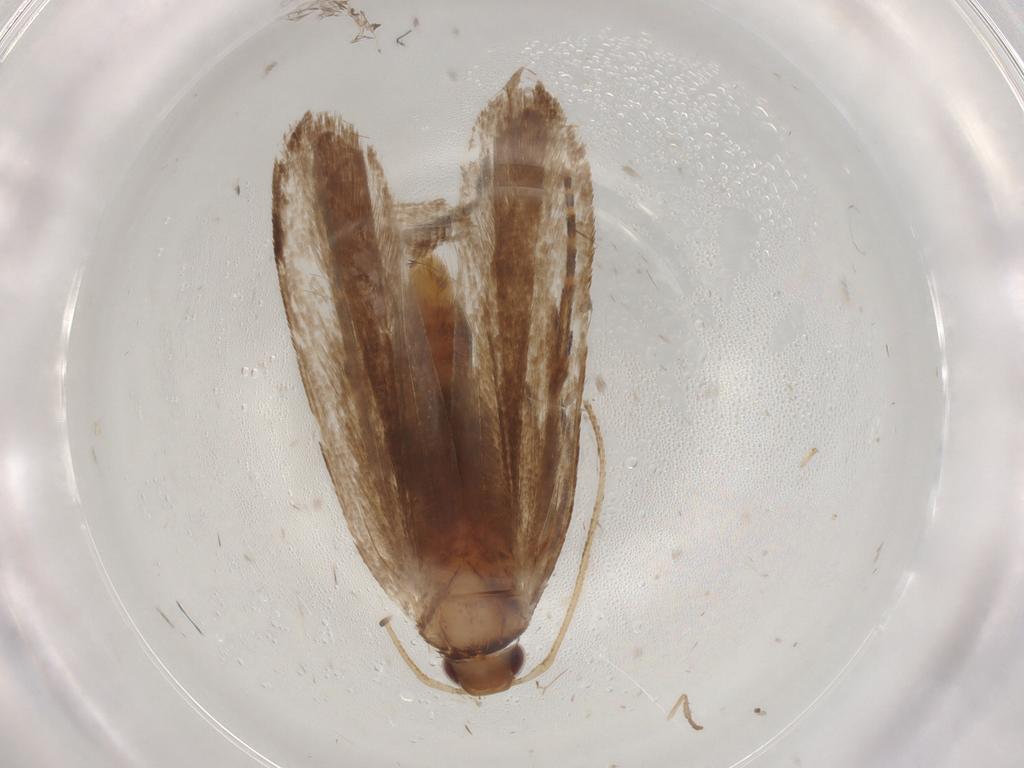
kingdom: Animalia
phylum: Arthropoda
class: Insecta
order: Lepidoptera
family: Gelechiidae
